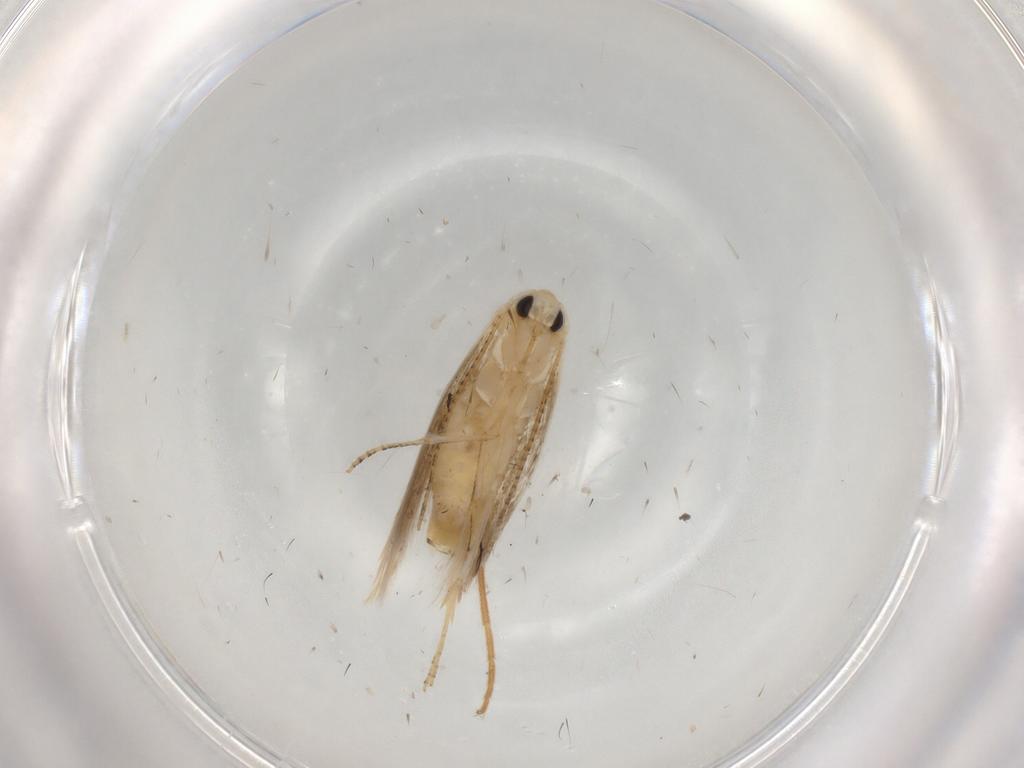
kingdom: Animalia
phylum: Arthropoda
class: Insecta
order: Lepidoptera
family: Bucculatricidae
